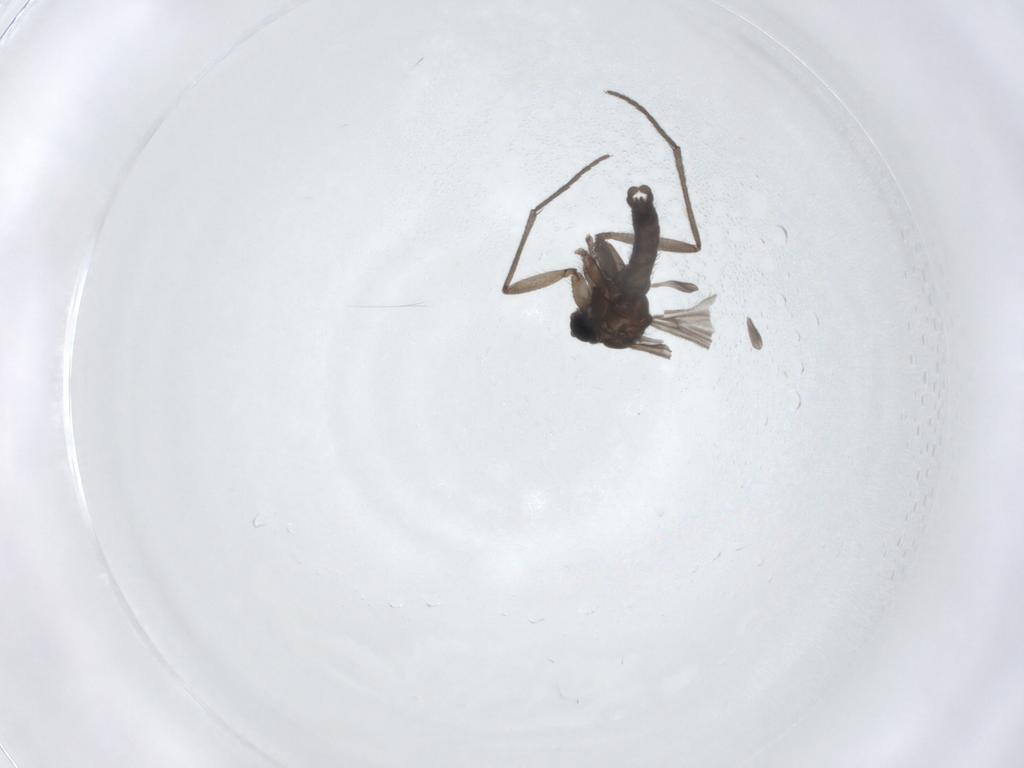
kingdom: Animalia
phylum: Arthropoda
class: Insecta
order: Diptera
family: Sciaridae
